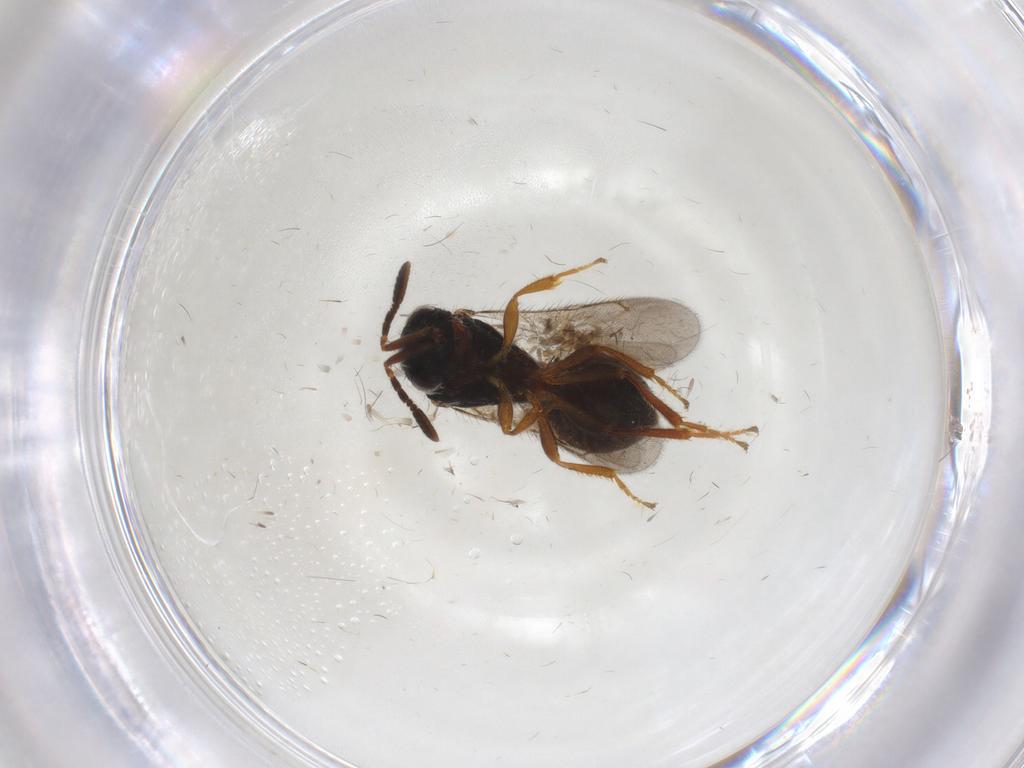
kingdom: Animalia
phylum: Arthropoda
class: Insecta
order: Hymenoptera
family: Scelionidae
